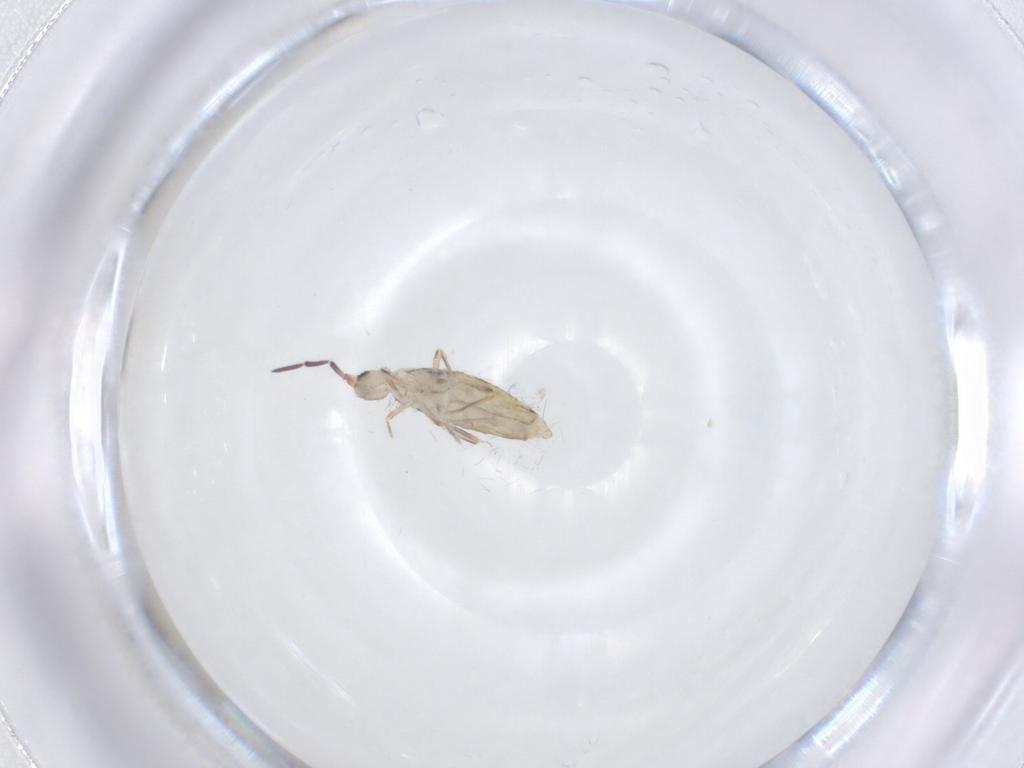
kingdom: Animalia
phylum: Arthropoda
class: Collembola
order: Entomobryomorpha
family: Entomobryidae
